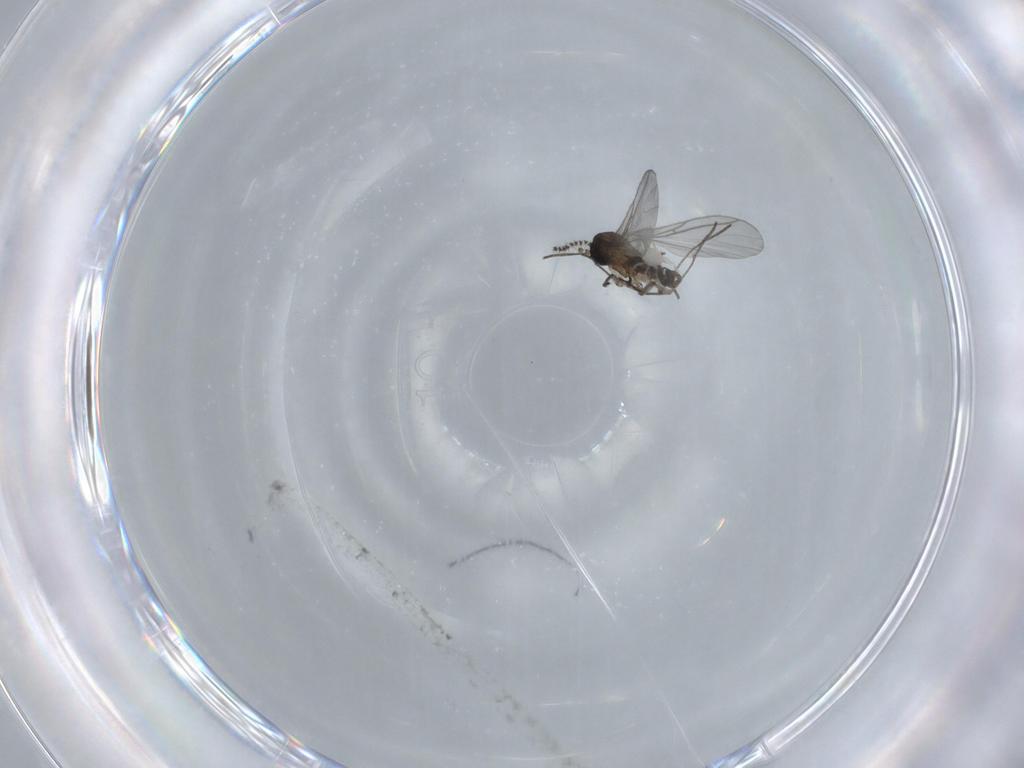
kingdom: Animalia
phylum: Arthropoda
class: Insecta
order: Diptera
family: Sciaridae
